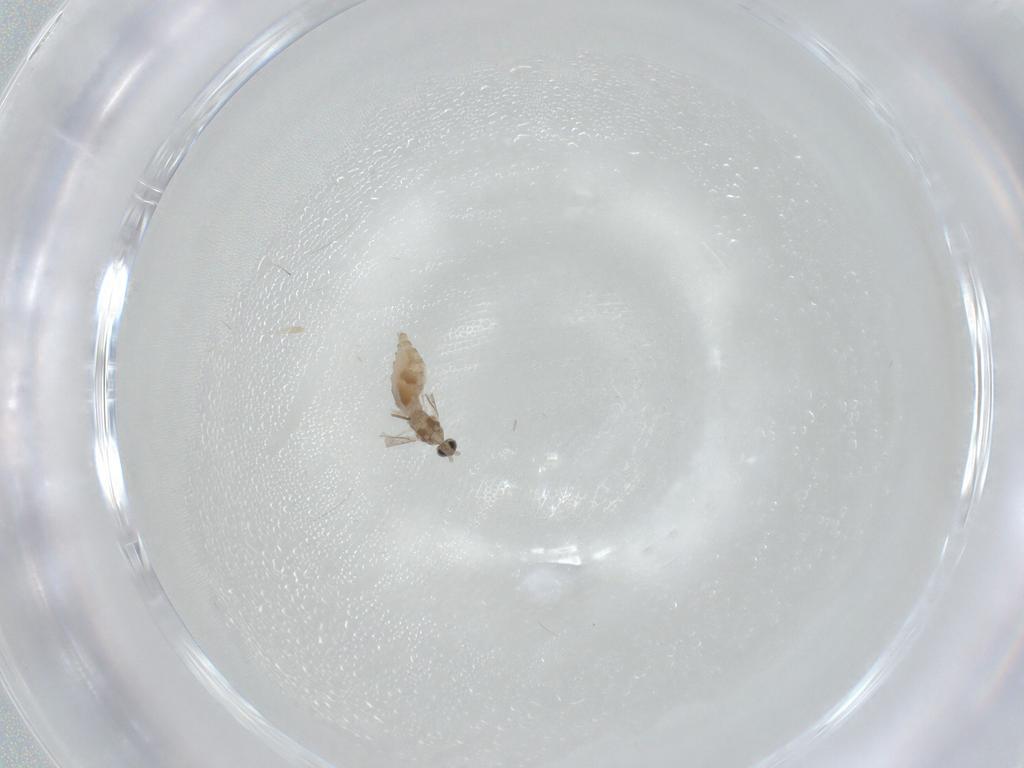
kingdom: Animalia
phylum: Arthropoda
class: Insecta
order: Diptera
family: Cecidomyiidae
